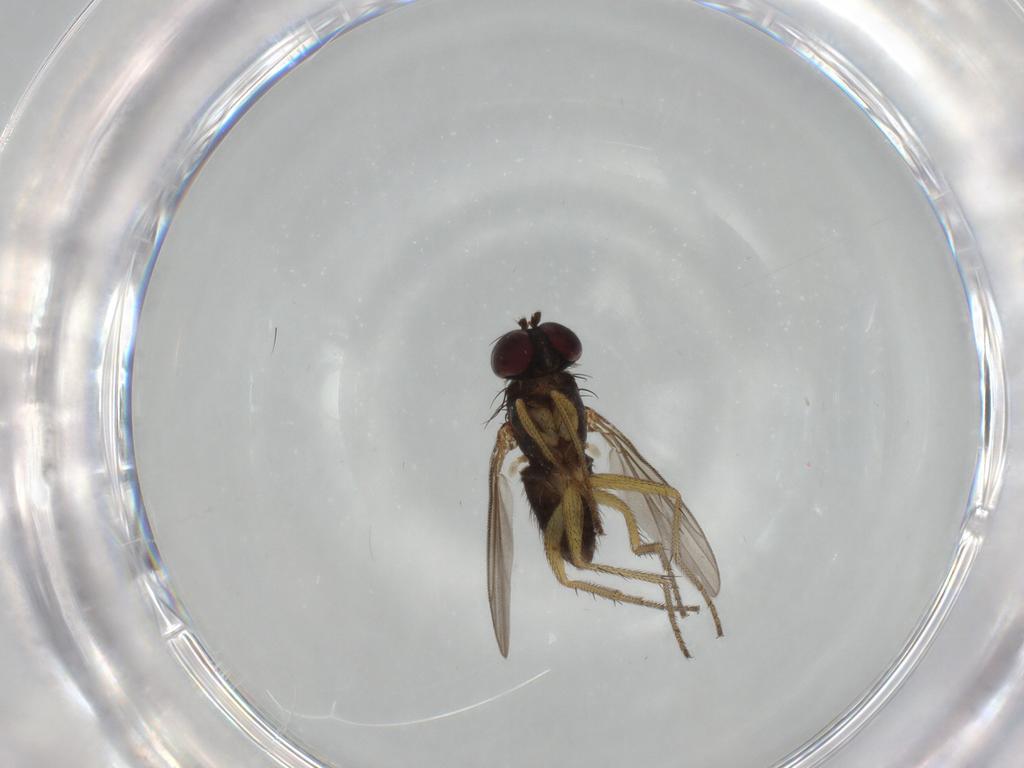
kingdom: Animalia
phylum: Arthropoda
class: Insecta
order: Diptera
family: Dolichopodidae
